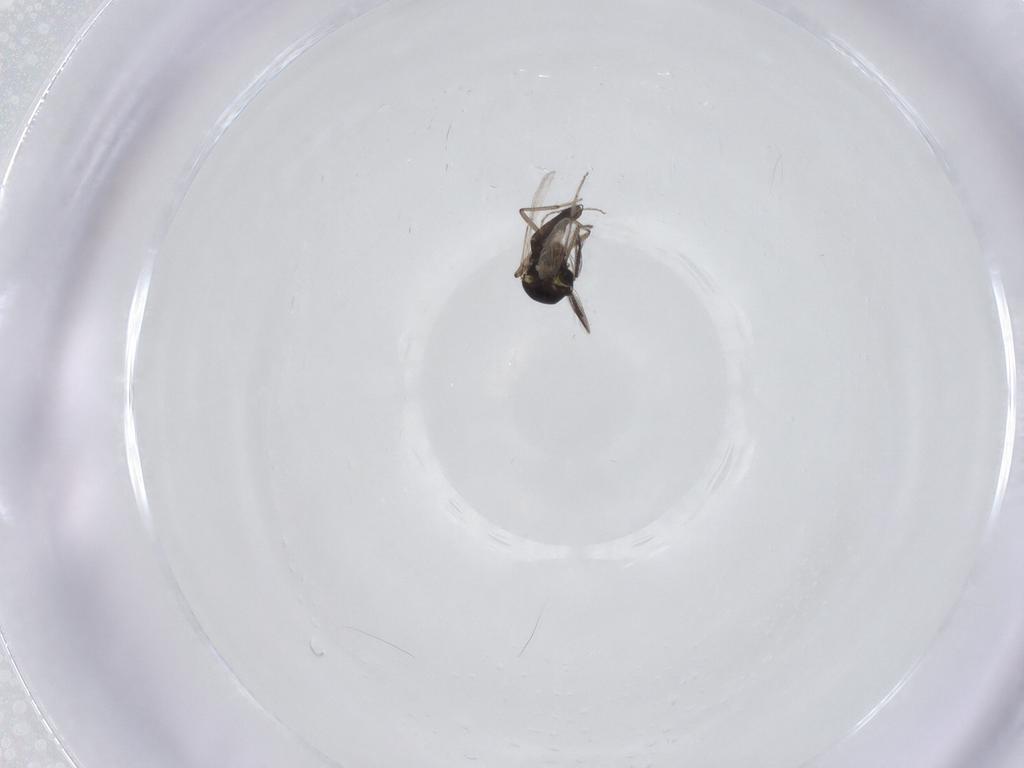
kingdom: Animalia
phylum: Arthropoda
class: Insecta
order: Diptera
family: Ceratopogonidae
